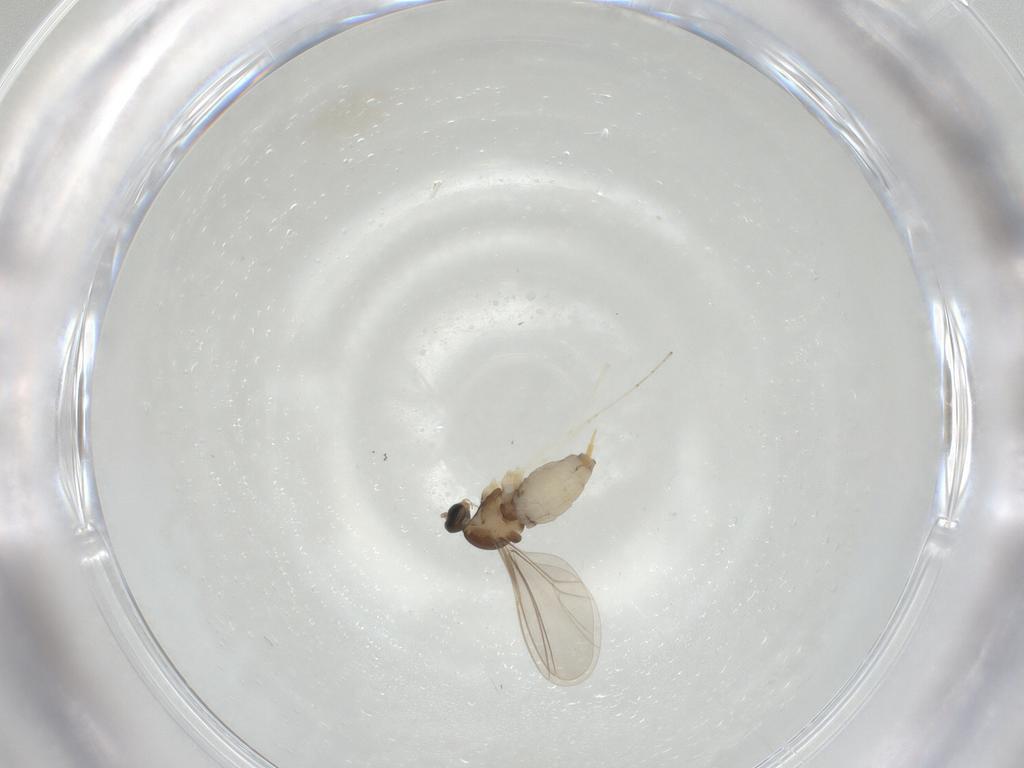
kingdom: Animalia
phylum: Arthropoda
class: Insecta
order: Diptera
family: Cecidomyiidae
